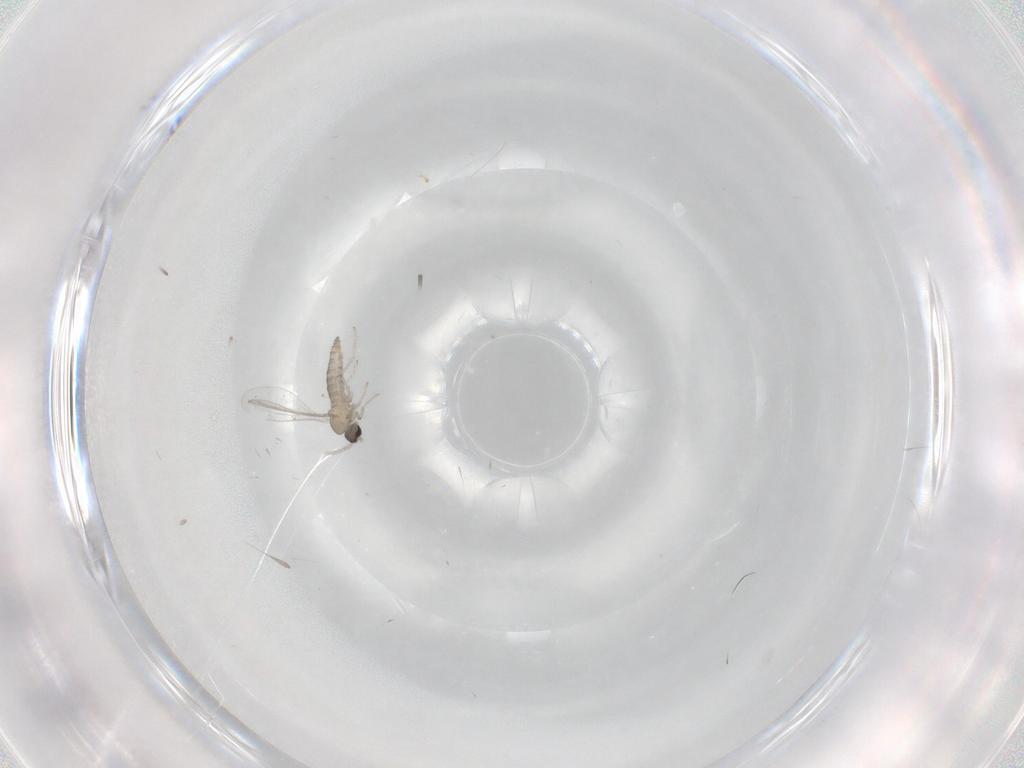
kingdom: Animalia
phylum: Arthropoda
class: Insecta
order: Diptera
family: Cecidomyiidae
